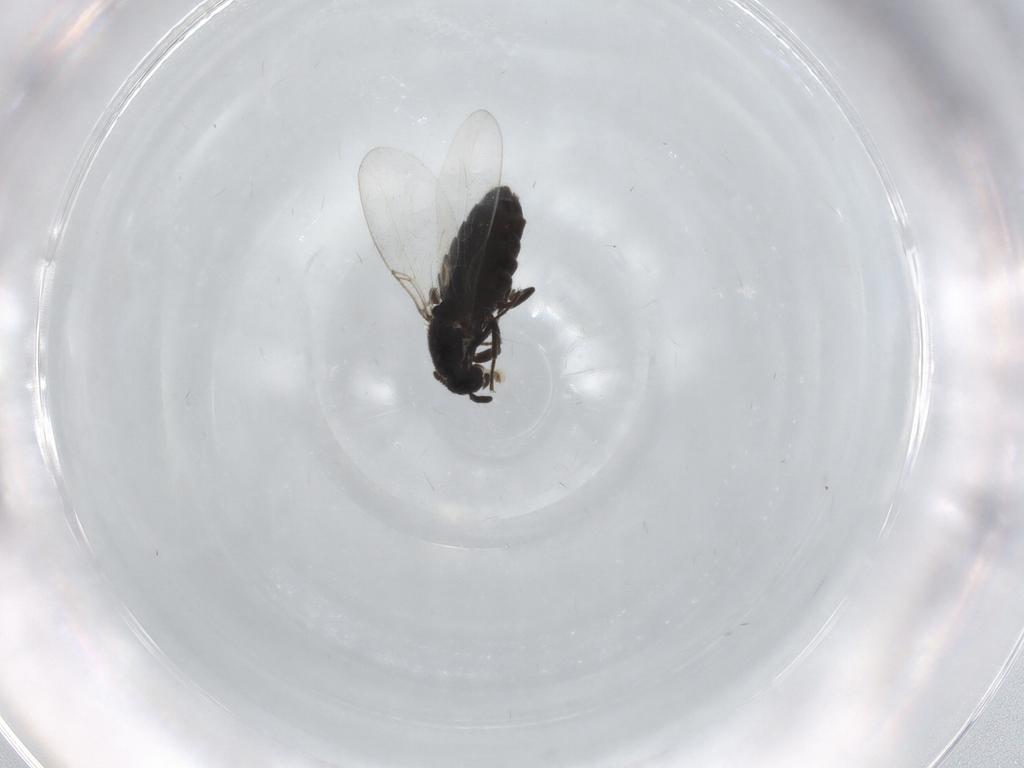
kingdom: Animalia
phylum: Arthropoda
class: Insecta
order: Diptera
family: Scatopsidae
